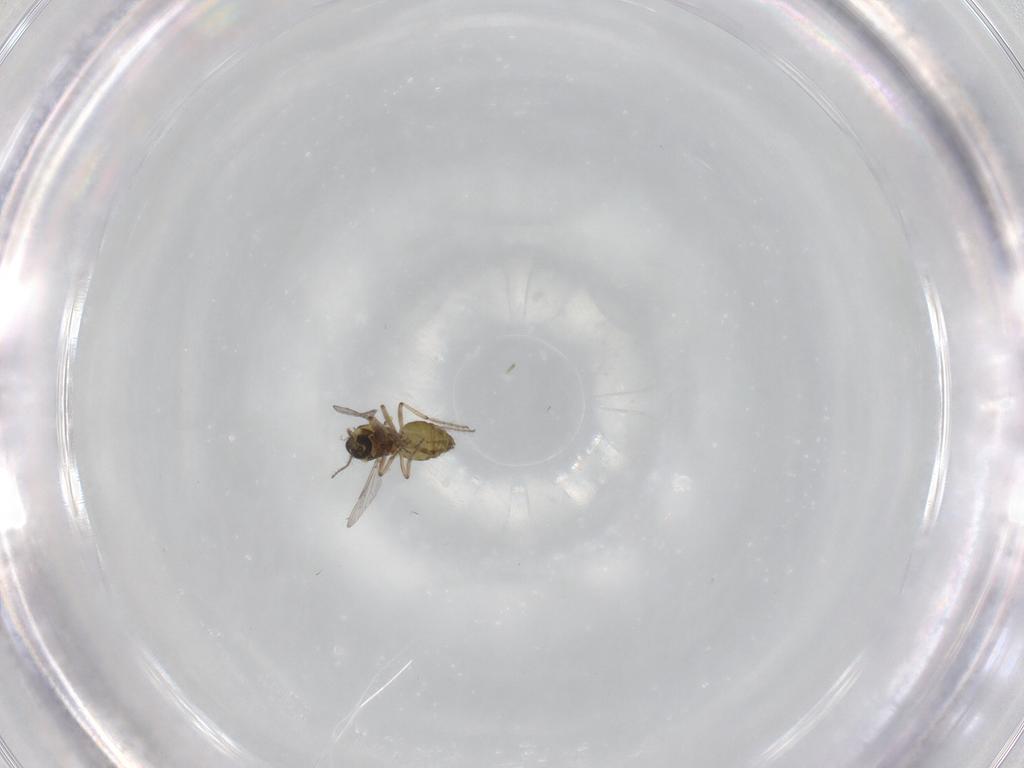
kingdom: Animalia
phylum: Arthropoda
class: Insecta
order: Diptera
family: Ceratopogonidae
